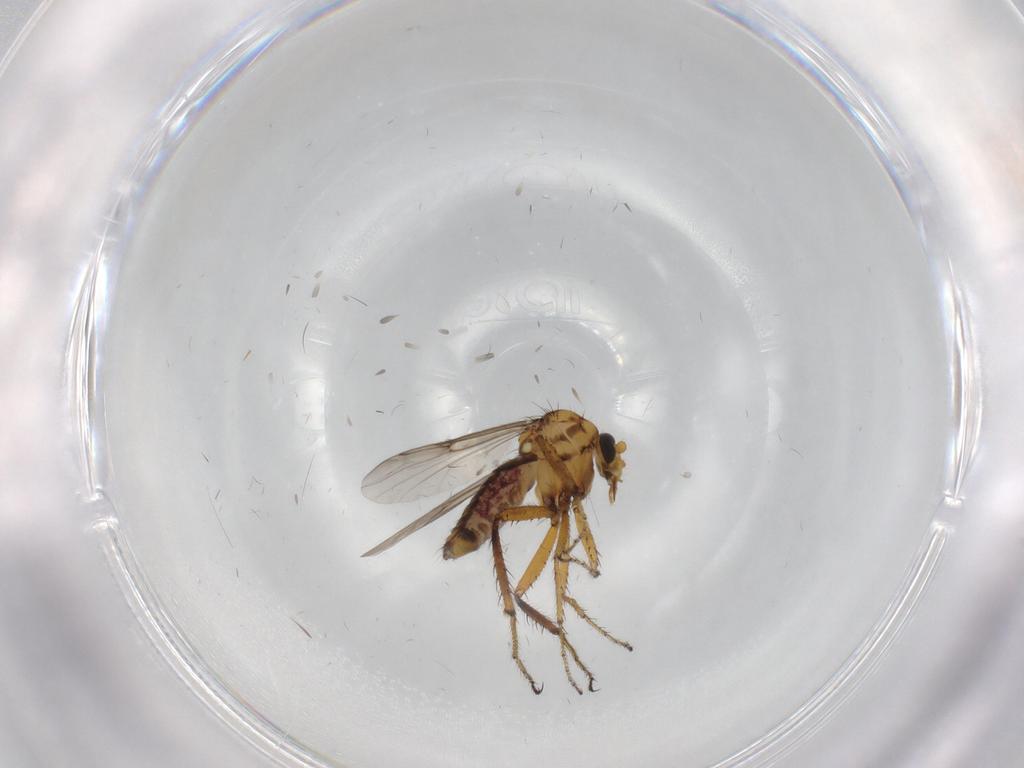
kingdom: Animalia
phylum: Arthropoda
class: Insecta
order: Diptera
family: Ceratopogonidae
